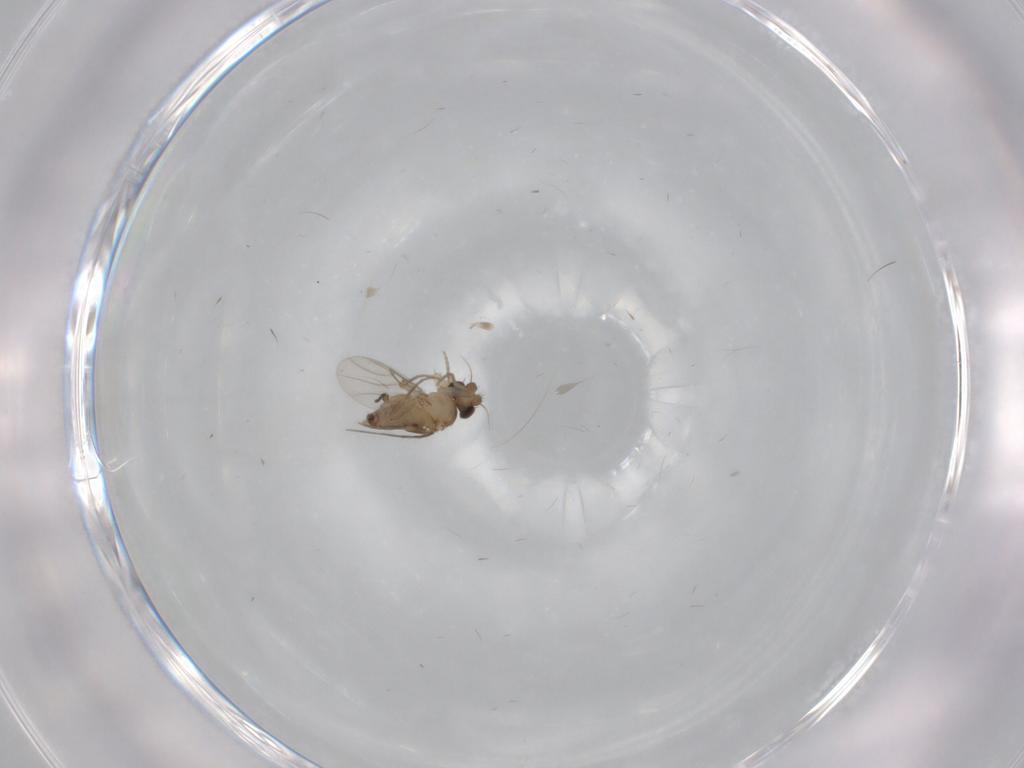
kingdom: Animalia
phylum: Arthropoda
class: Insecta
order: Diptera
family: Phoridae
